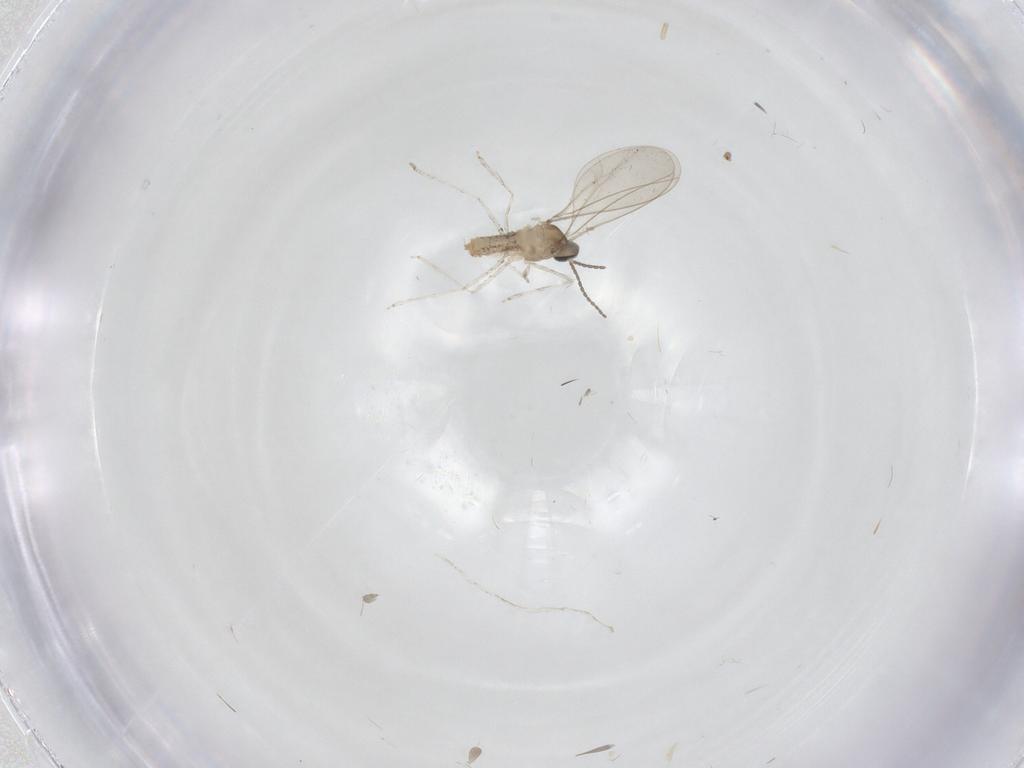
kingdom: Animalia
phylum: Arthropoda
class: Insecta
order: Diptera
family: Cecidomyiidae
